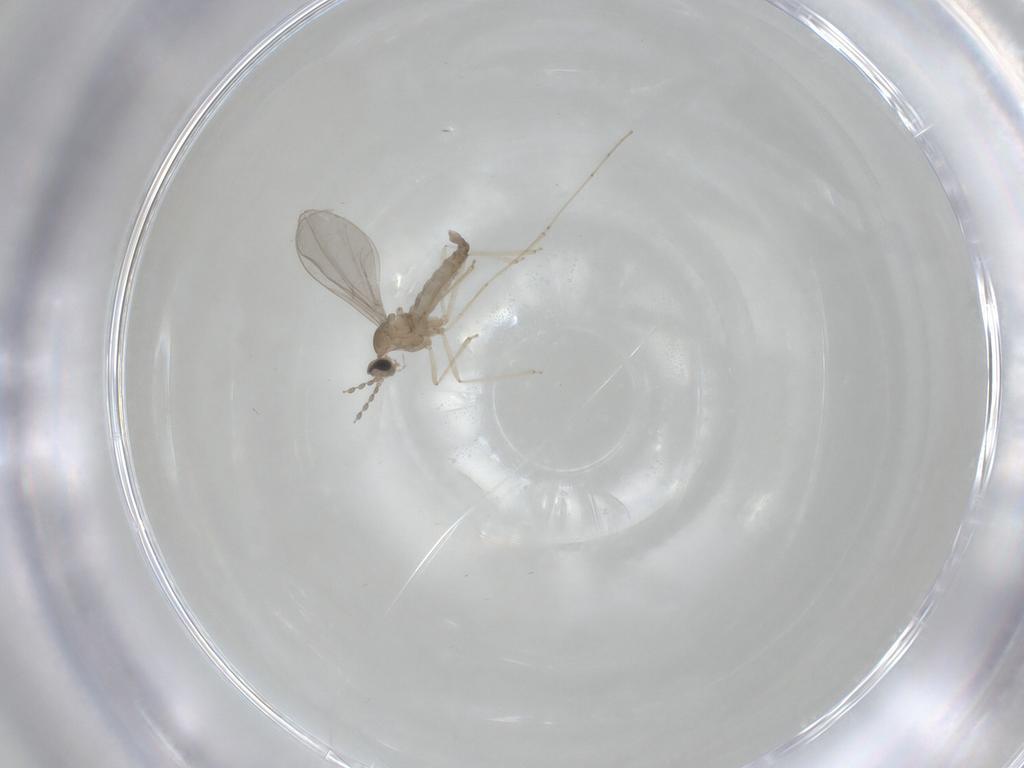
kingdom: Animalia
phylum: Arthropoda
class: Insecta
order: Diptera
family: Cecidomyiidae
